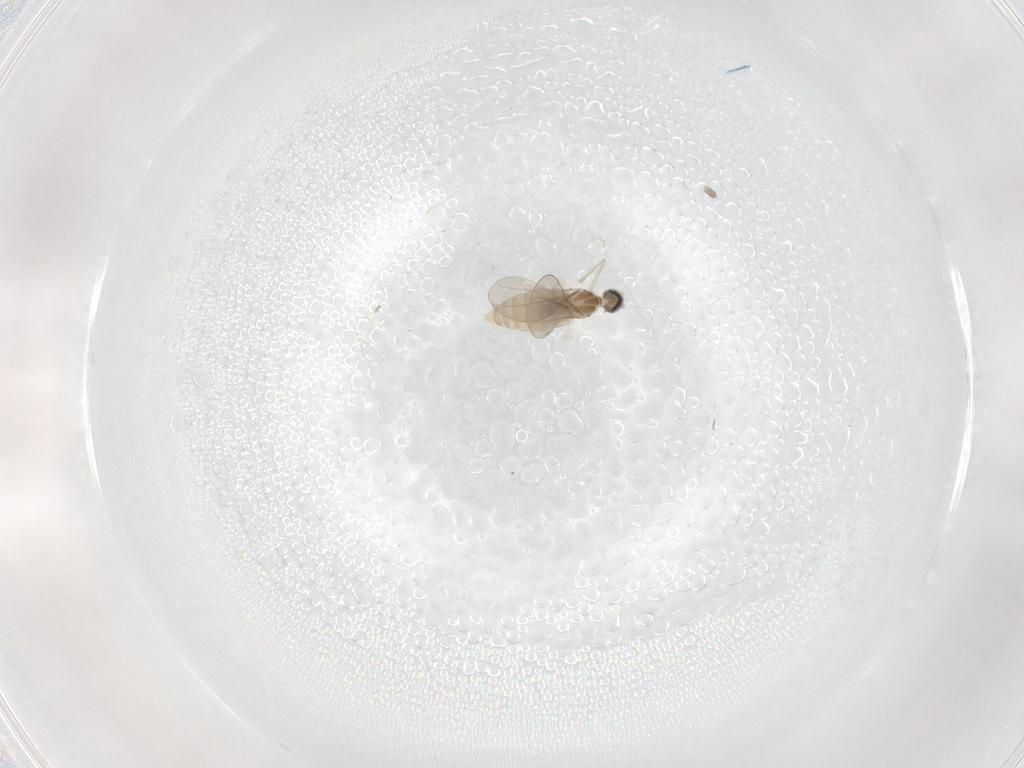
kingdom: Animalia
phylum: Arthropoda
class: Insecta
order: Diptera
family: Cecidomyiidae
